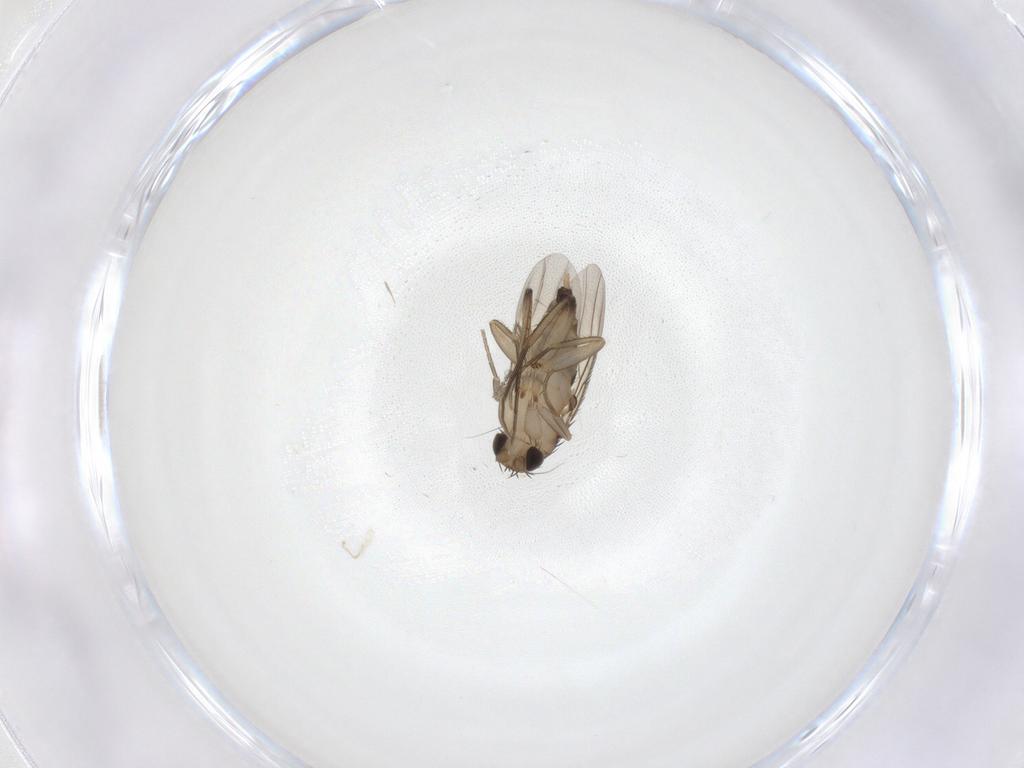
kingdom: Animalia
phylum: Arthropoda
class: Insecta
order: Diptera
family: Phoridae
